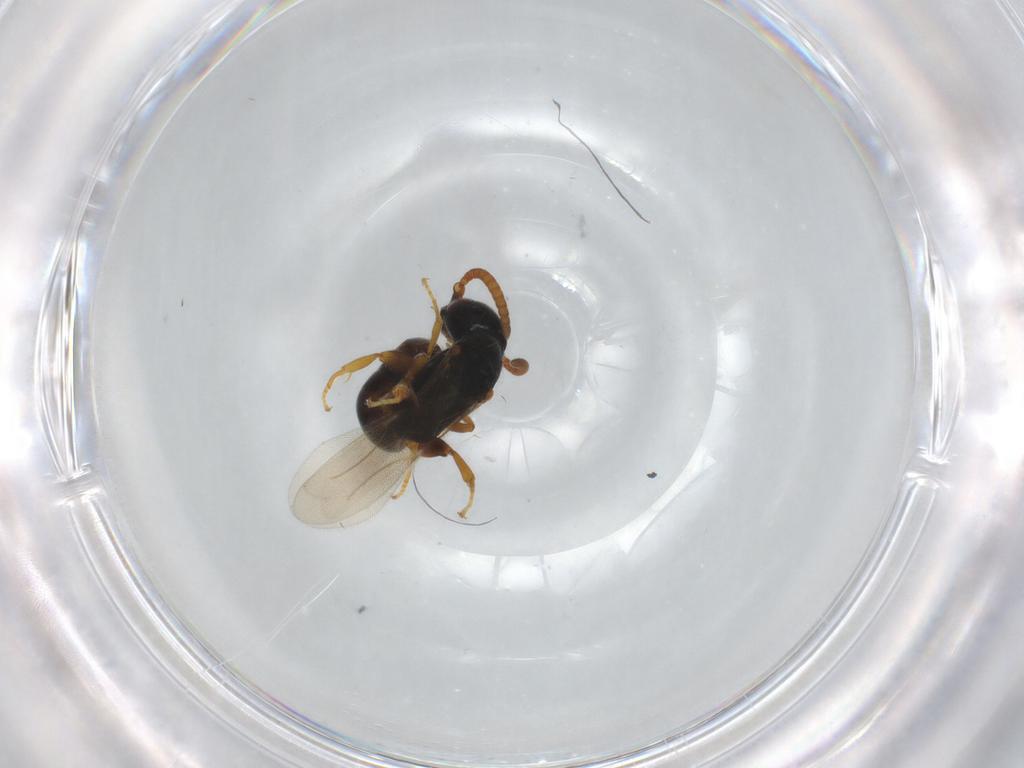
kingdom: Animalia
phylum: Arthropoda
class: Insecta
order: Hymenoptera
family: Bethylidae
